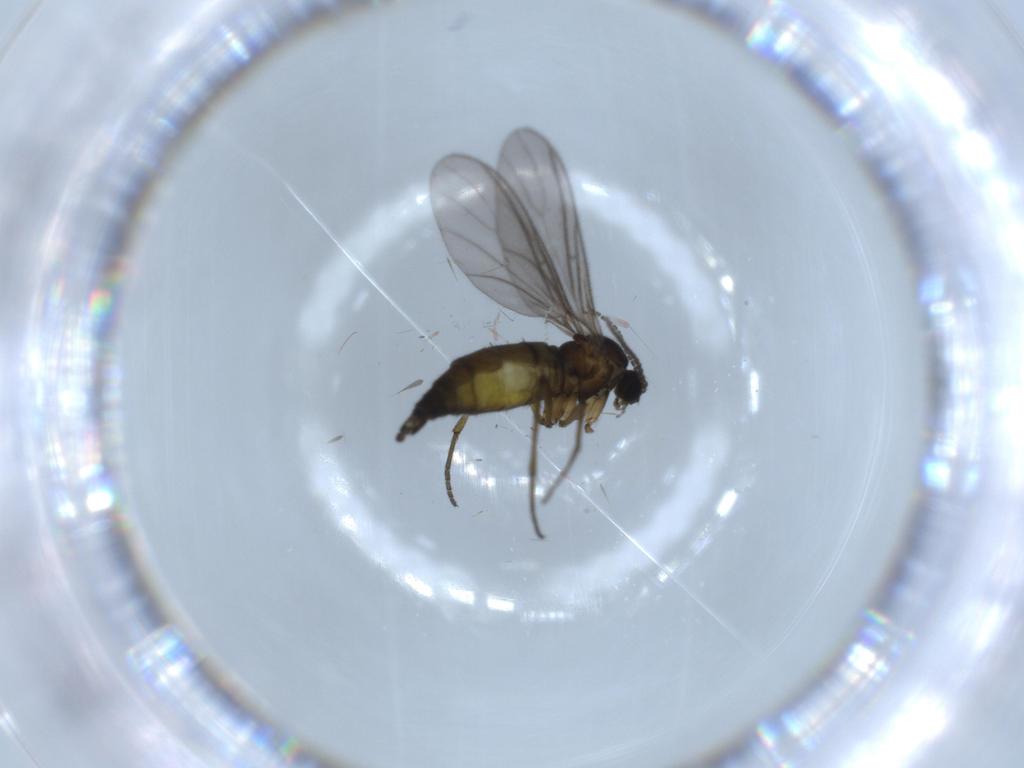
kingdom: Animalia
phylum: Arthropoda
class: Insecta
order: Diptera
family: Sciaridae
